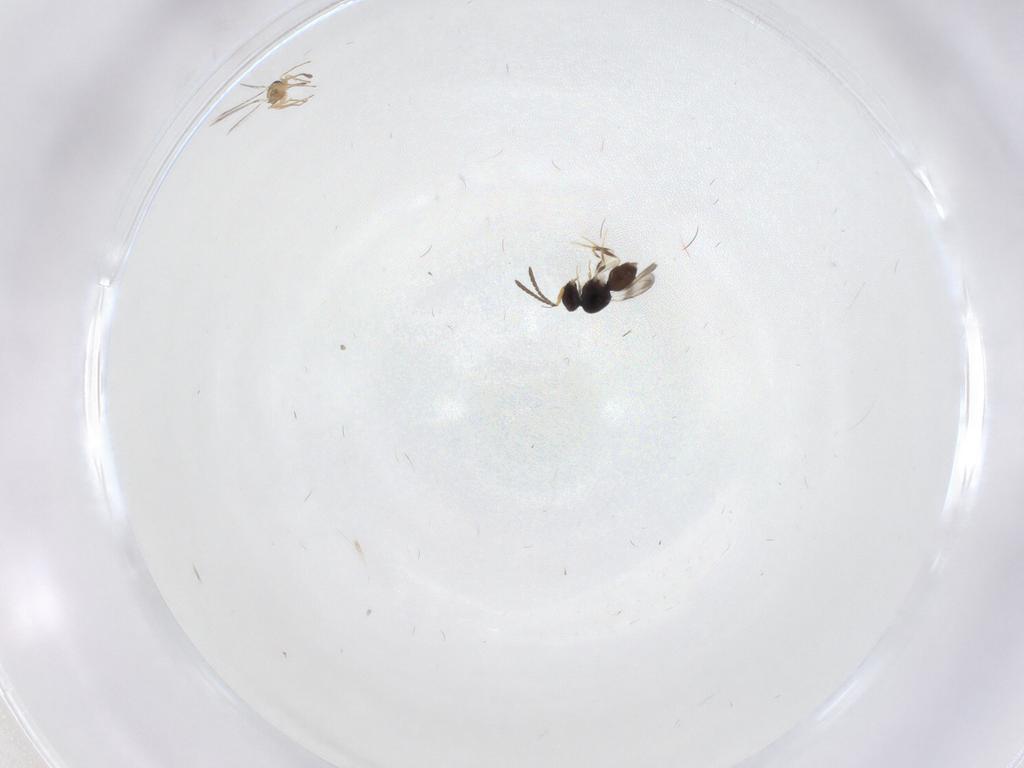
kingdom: Animalia
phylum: Arthropoda
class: Insecta
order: Hymenoptera
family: Mymaridae
